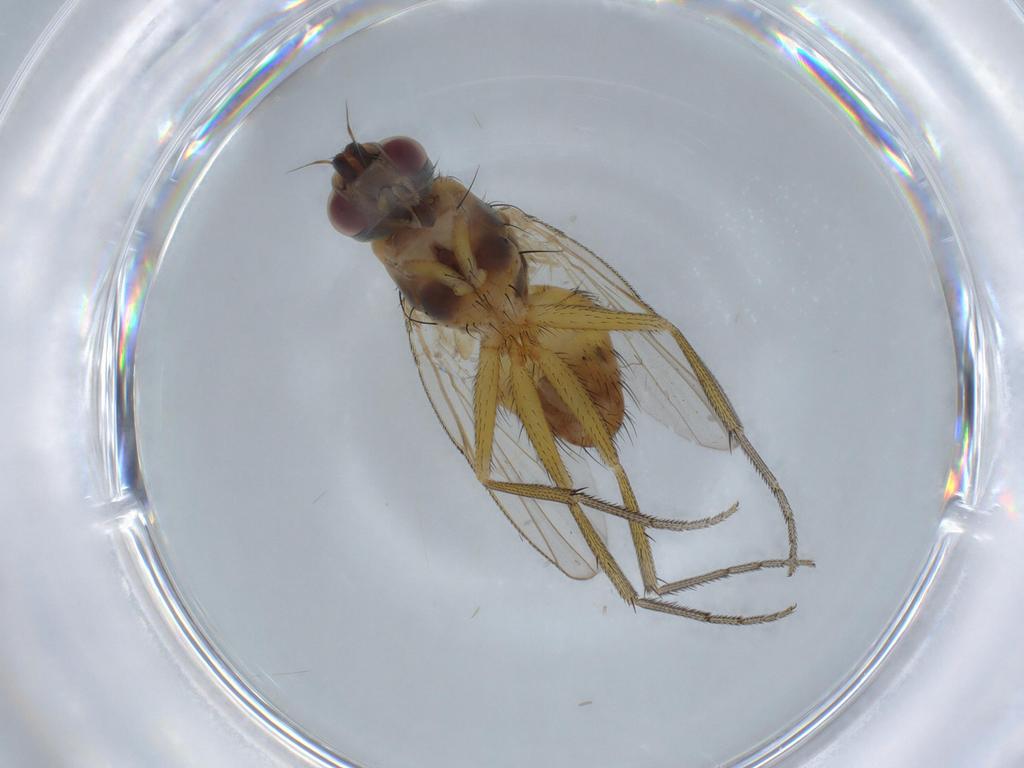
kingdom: Animalia
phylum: Arthropoda
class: Insecta
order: Diptera
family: Muscidae
